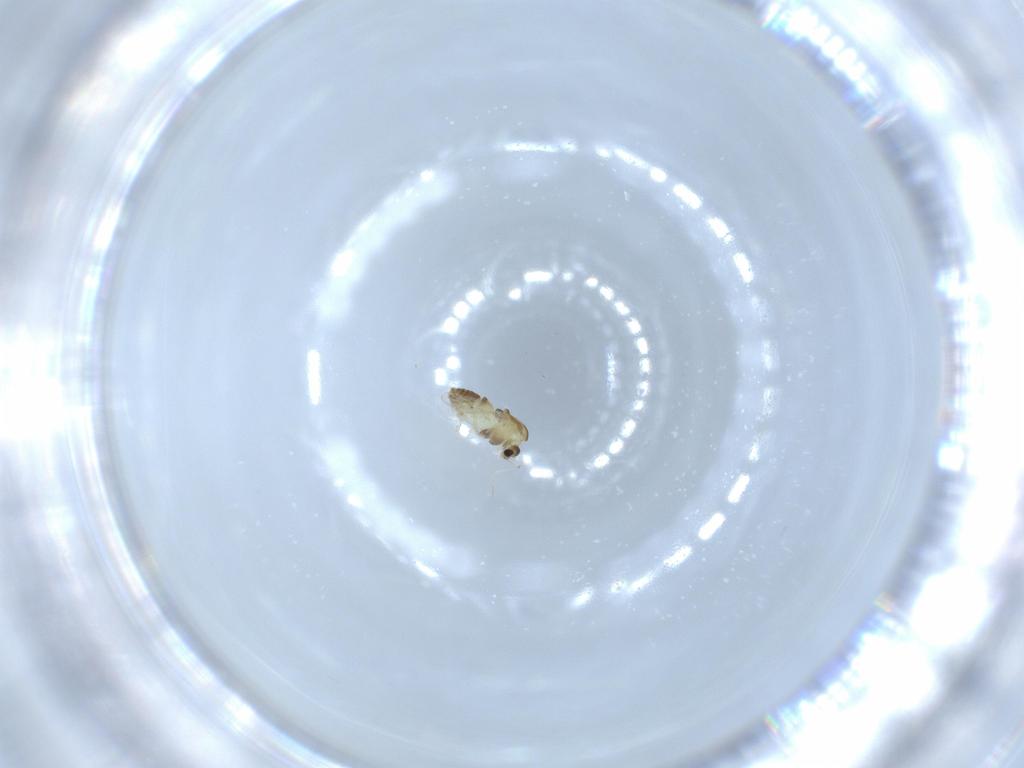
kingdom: Animalia
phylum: Arthropoda
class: Insecta
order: Diptera
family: Chironomidae
